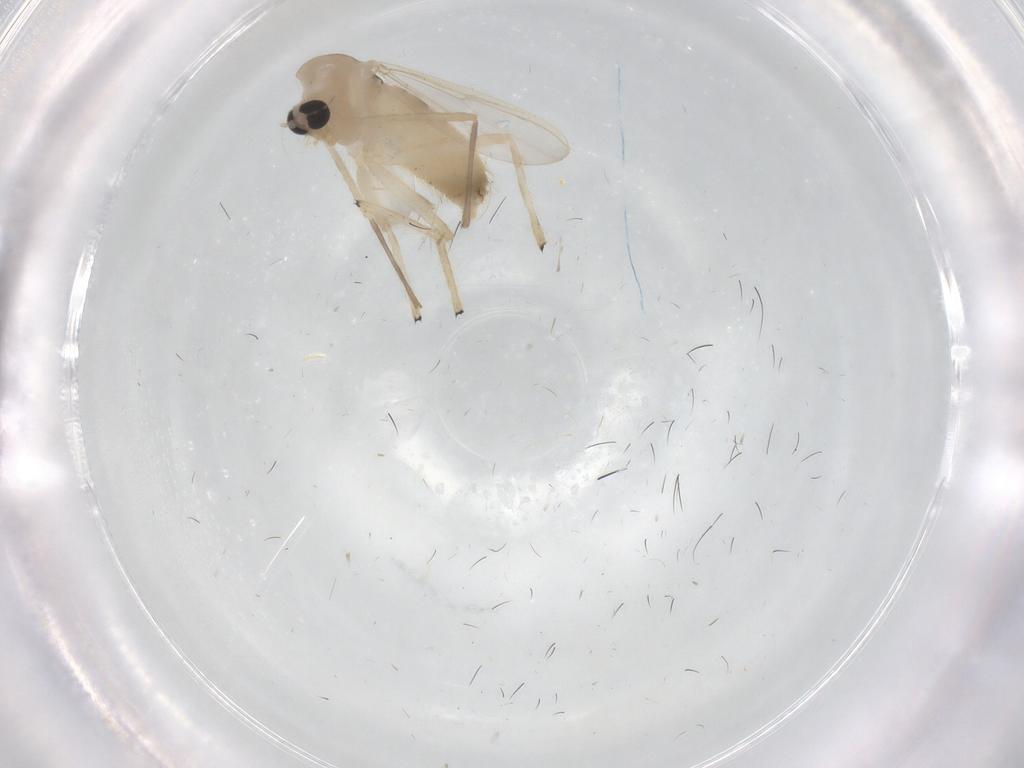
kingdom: Animalia
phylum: Arthropoda
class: Insecta
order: Diptera
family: Chironomidae
